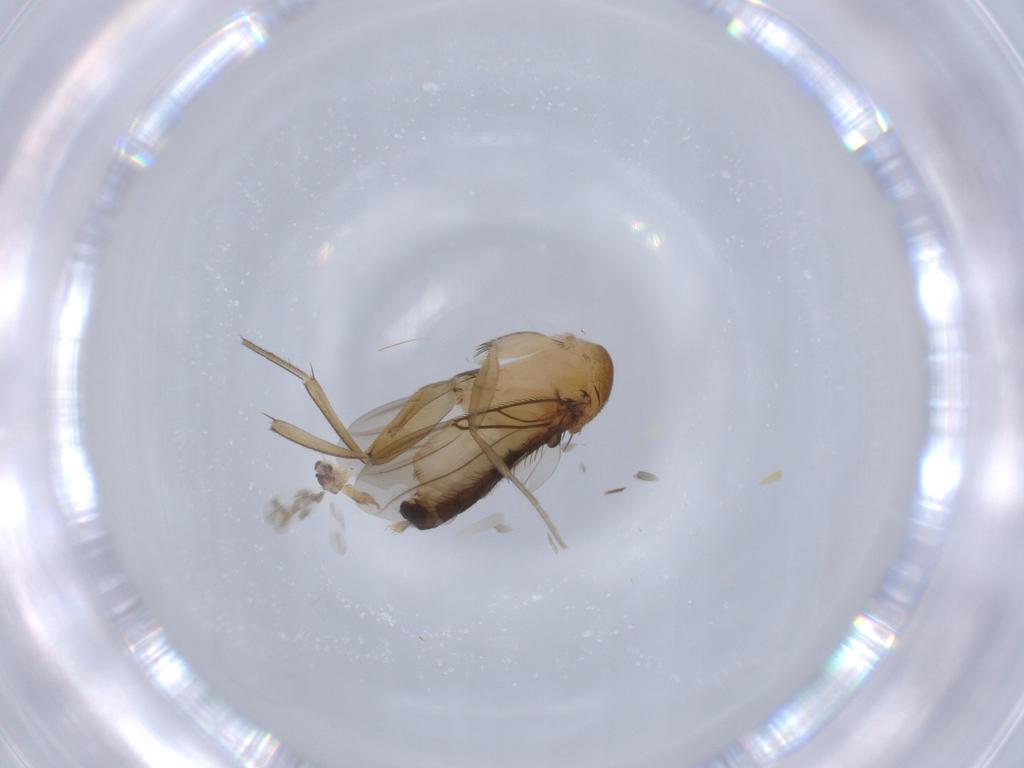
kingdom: Animalia
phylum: Arthropoda
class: Insecta
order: Diptera
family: Phoridae
